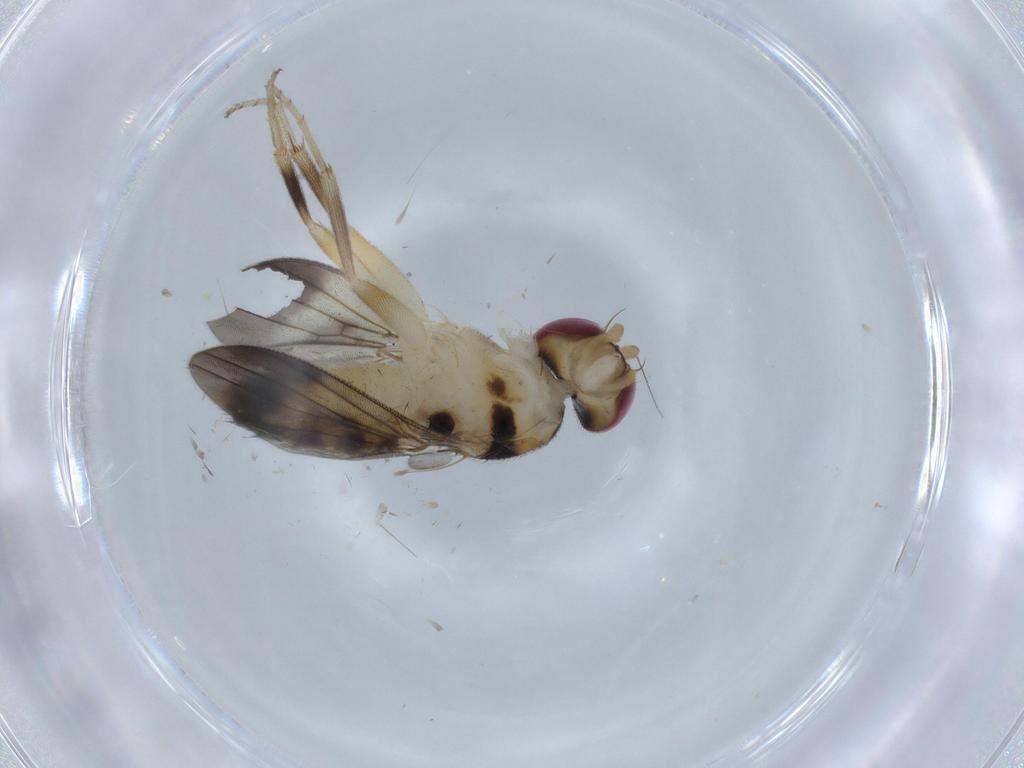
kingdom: Animalia
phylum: Arthropoda
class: Insecta
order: Diptera
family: Clusiidae
